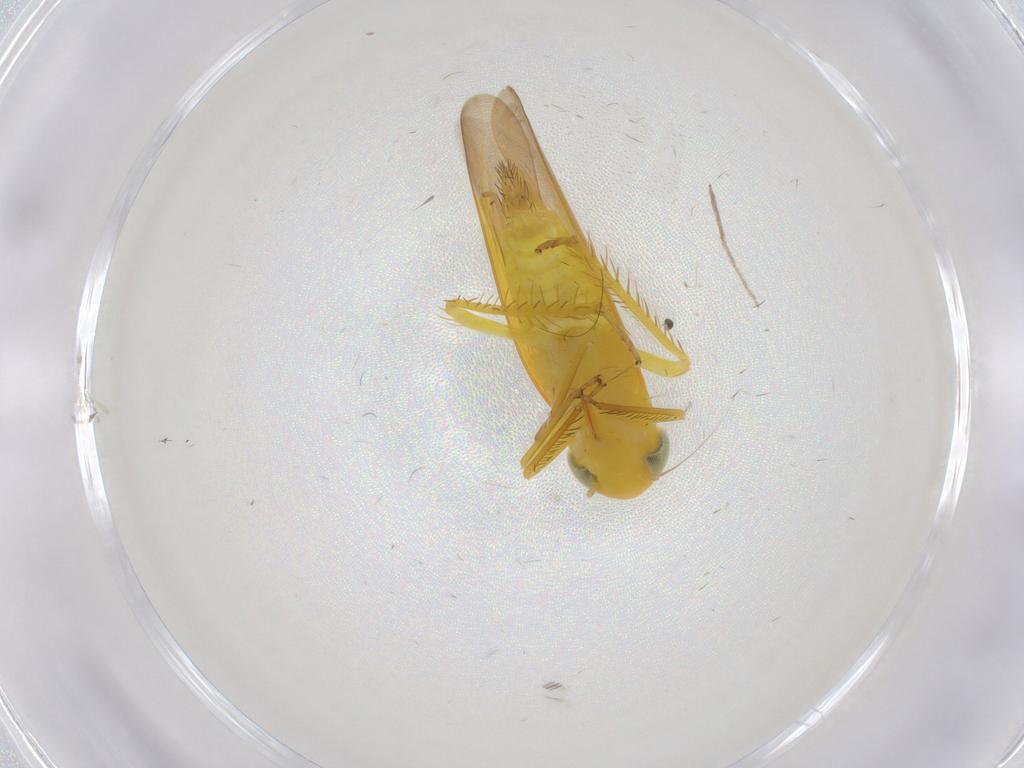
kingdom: Animalia
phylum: Arthropoda
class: Insecta
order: Hemiptera
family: Cicadellidae
